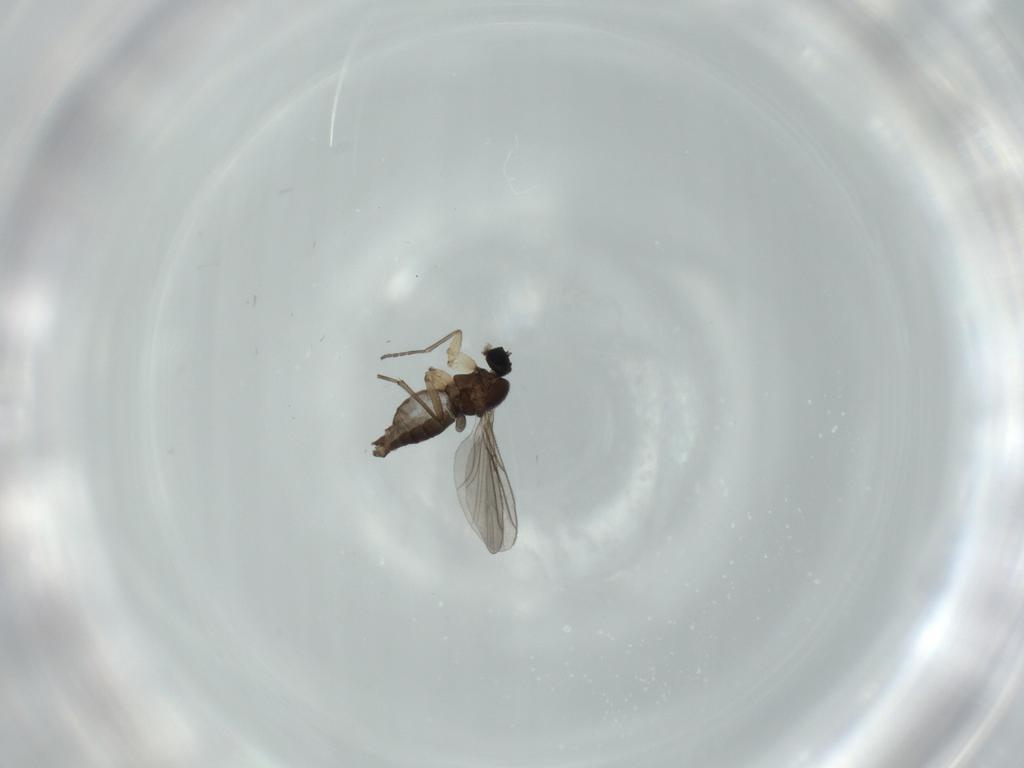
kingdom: Animalia
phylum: Arthropoda
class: Insecta
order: Diptera
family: Sciaridae
